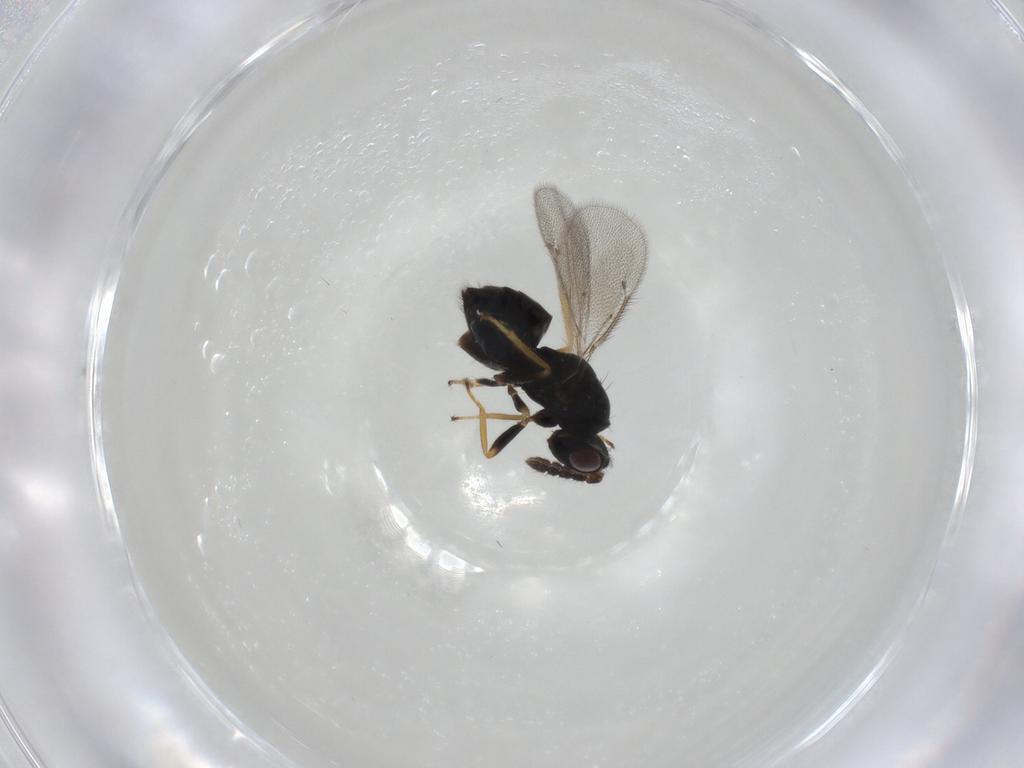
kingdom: Animalia
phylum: Arthropoda
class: Insecta
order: Hymenoptera
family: Eulophidae
